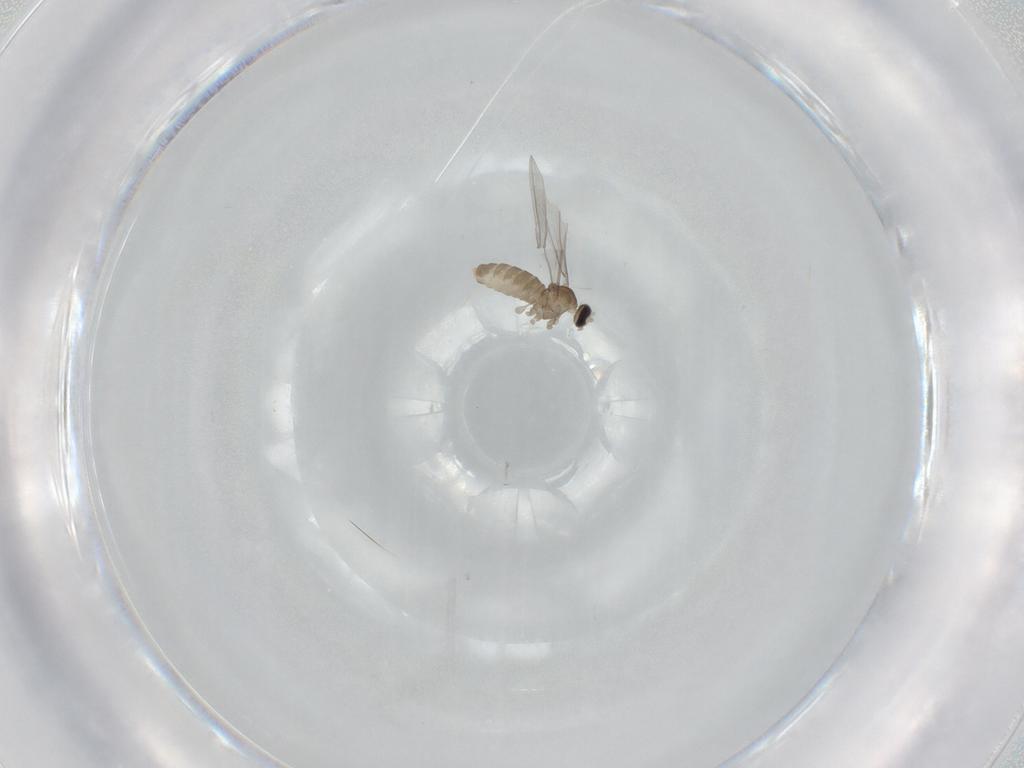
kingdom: Animalia
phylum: Arthropoda
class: Insecta
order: Diptera
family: Cecidomyiidae
